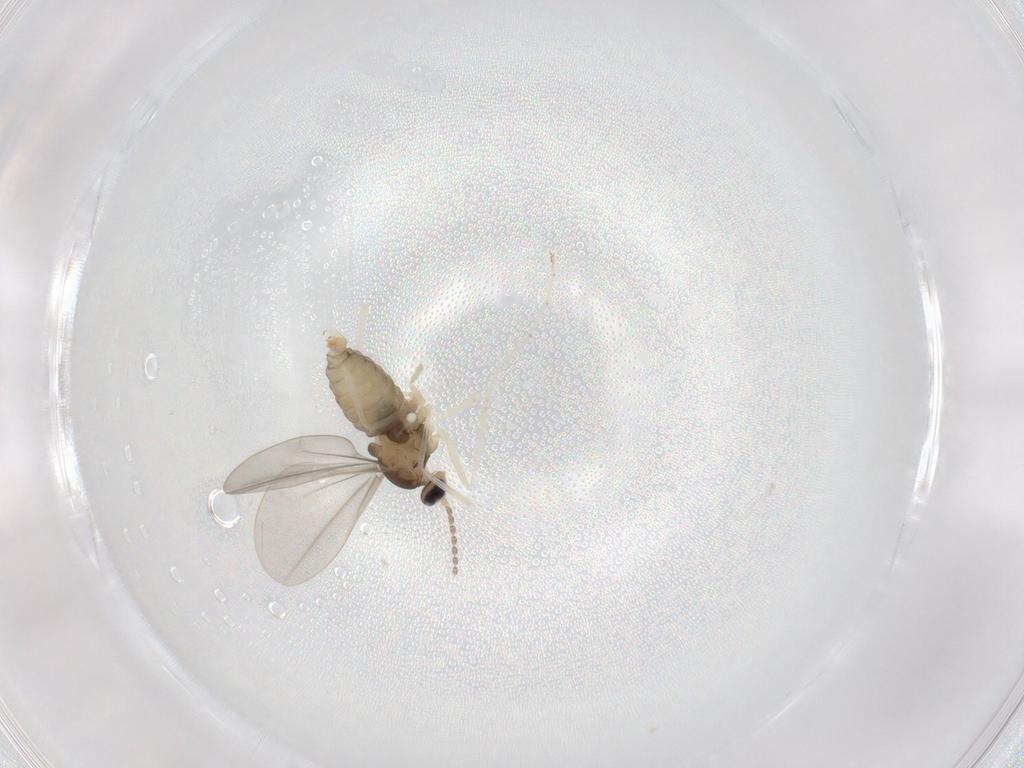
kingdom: Animalia
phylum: Arthropoda
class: Insecta
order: Diptera
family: Cecidomyiidae
